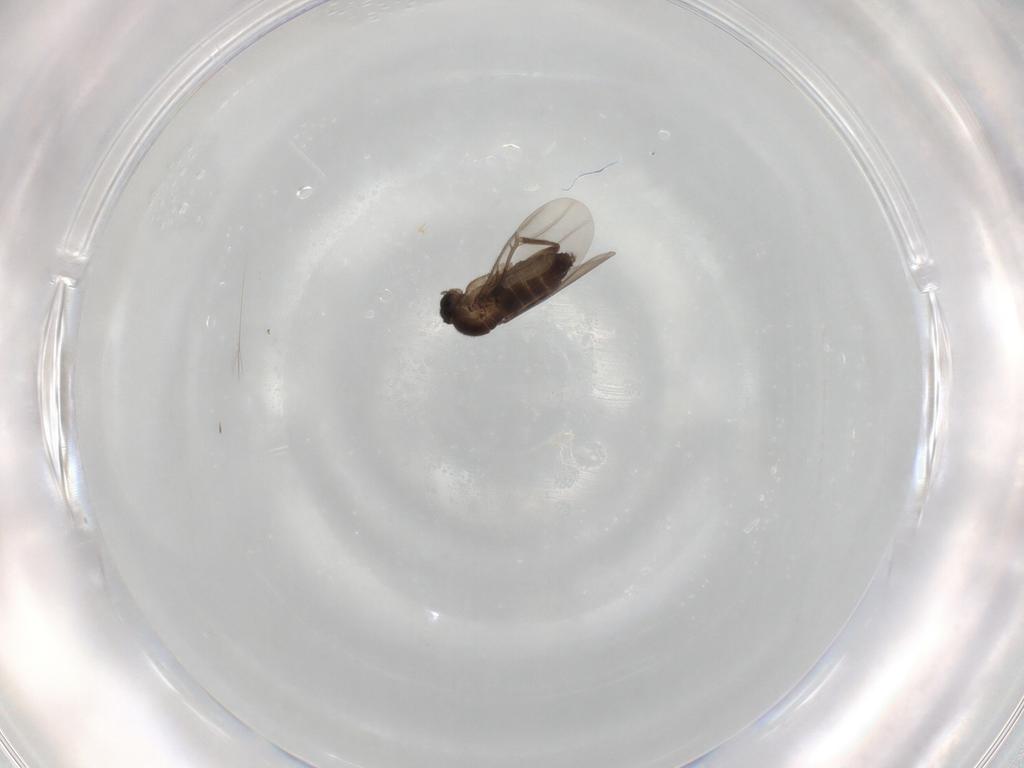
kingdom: Animalia
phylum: Arthropoda
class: Insecta
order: Diptera
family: Phoridae
